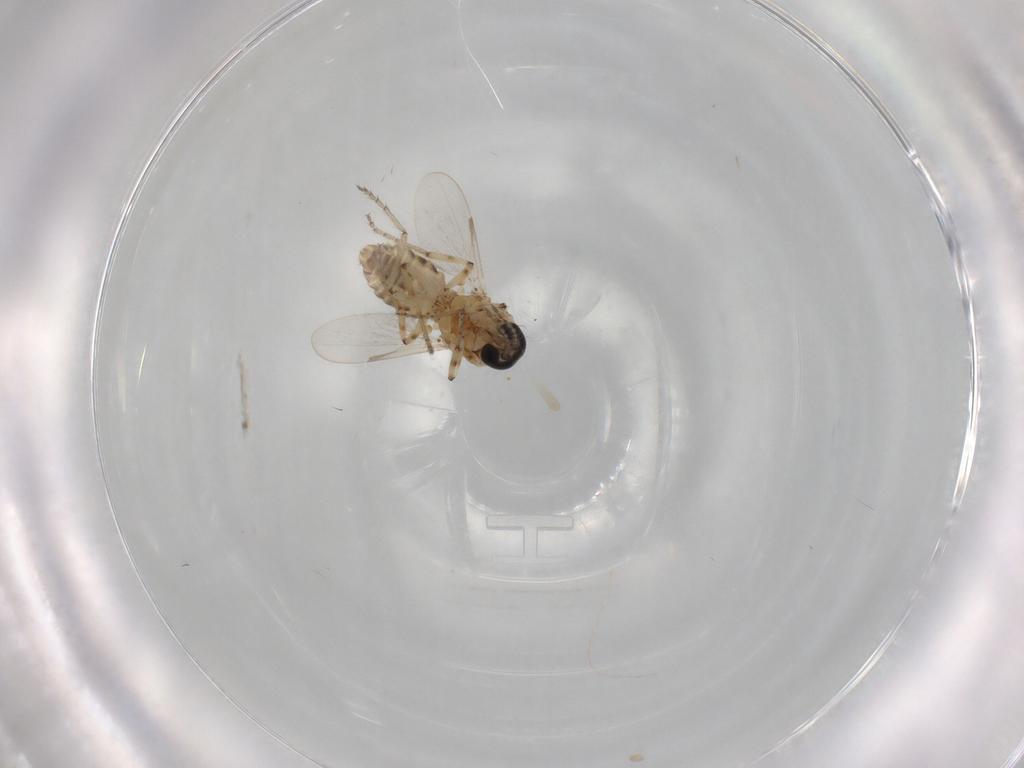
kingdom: Animalia
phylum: Arthropoda
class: Insecta
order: Diptera
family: Ceratopogonidae
